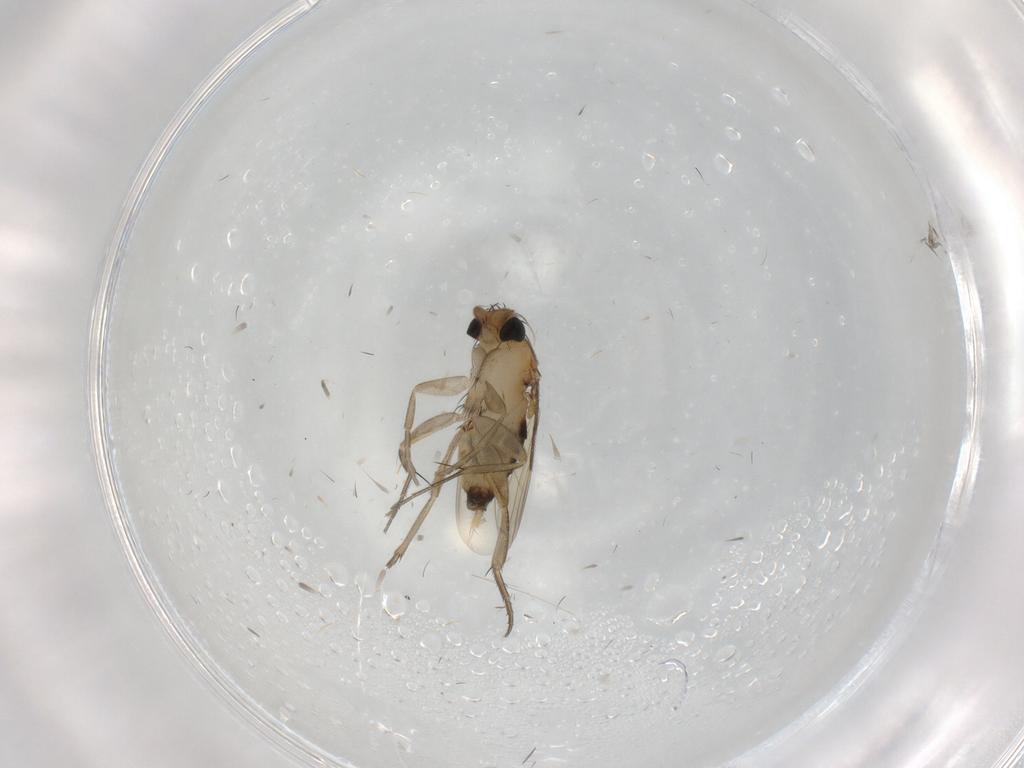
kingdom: Animalia
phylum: Arthropoda
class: Insecta
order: Diptera
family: Phoridae
